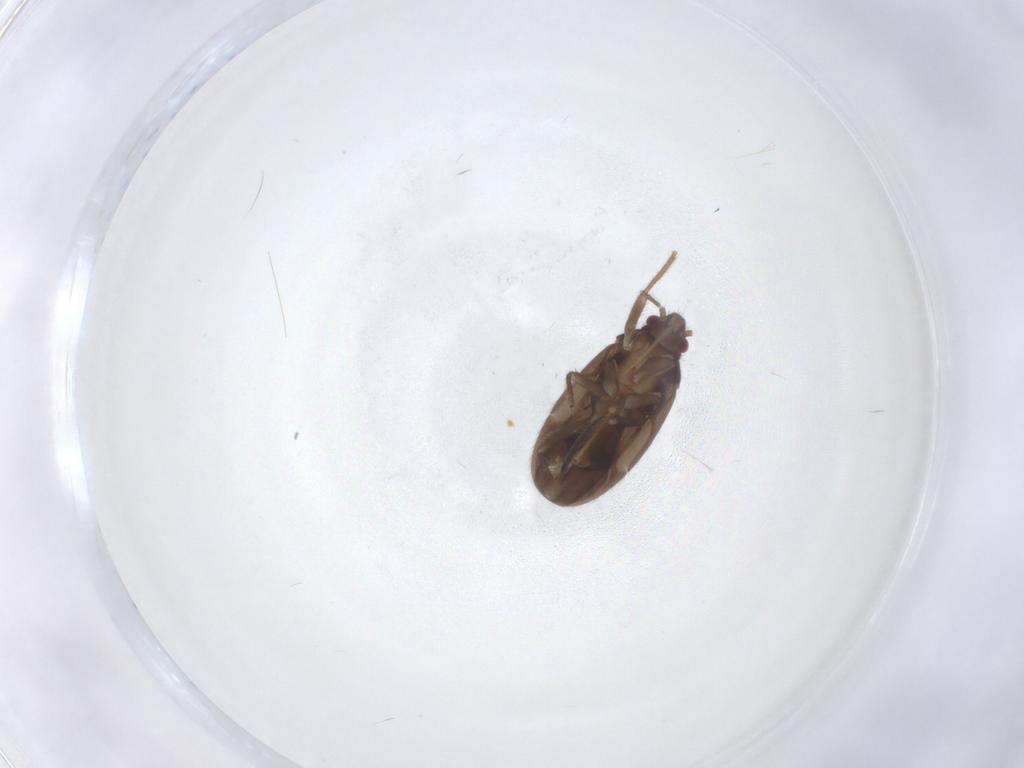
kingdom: Animalia
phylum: Arthropoda
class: Insecta
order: Hemiptera
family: Ceratocombidae
